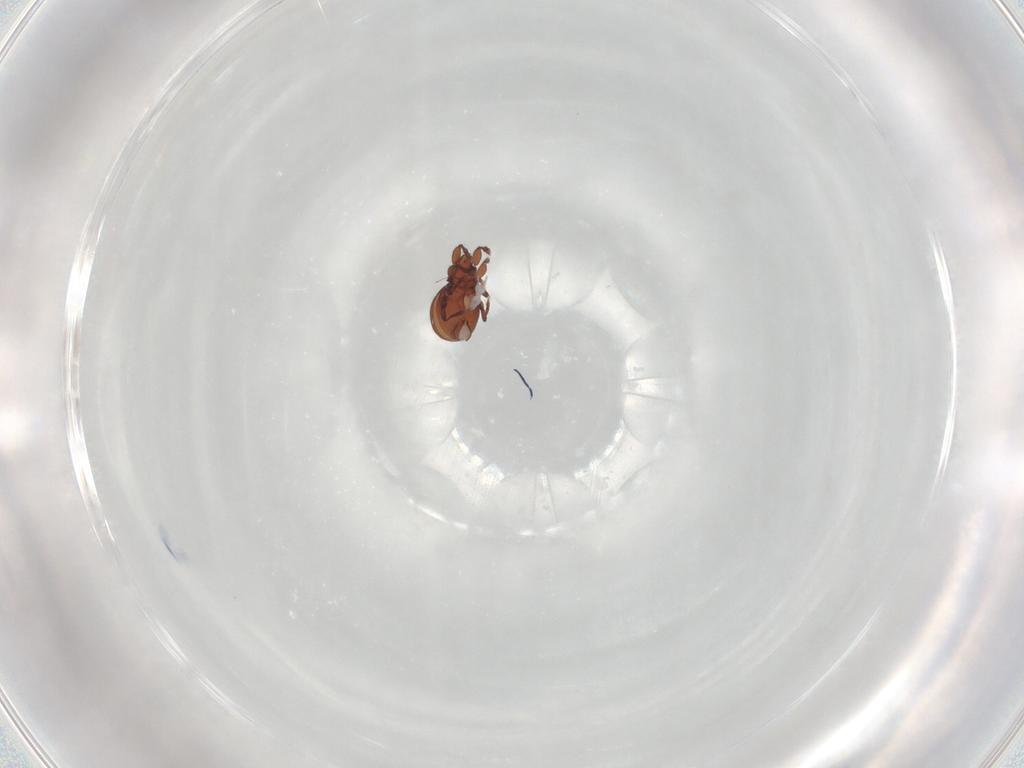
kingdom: Animalia
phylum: Arthropoda
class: Arachnida
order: Sarcoptiformes
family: Eremaeidae
